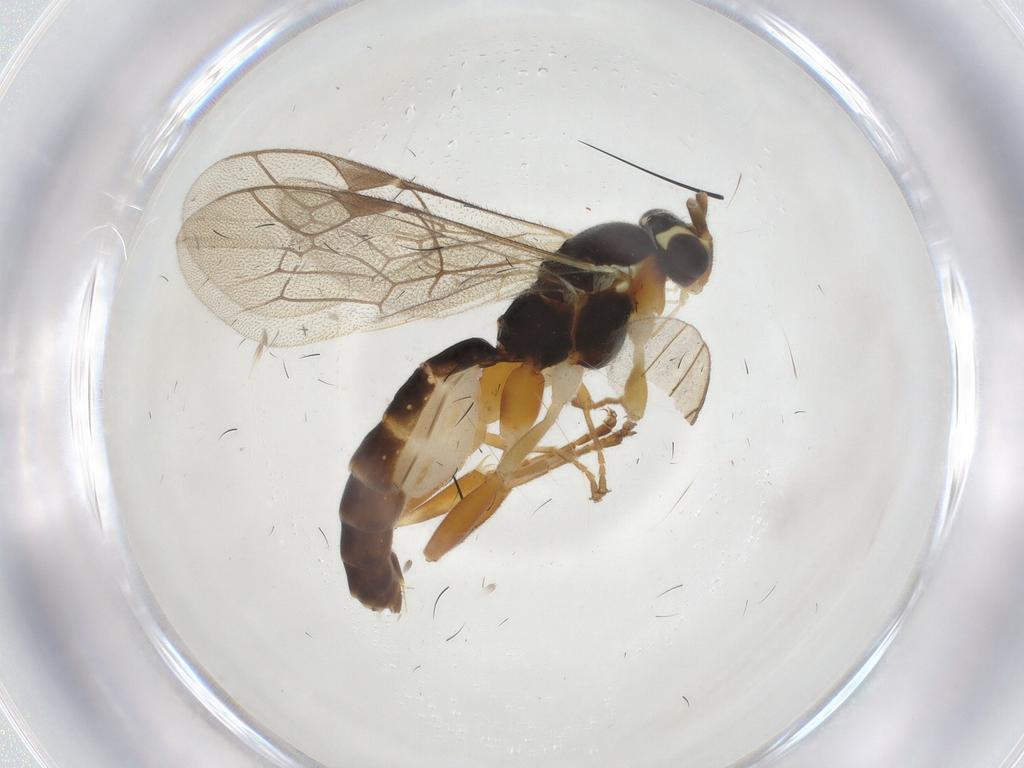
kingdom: Animalia
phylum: Arthropoda
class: Insecta
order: Hymenoptera
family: Ichneumonidae
